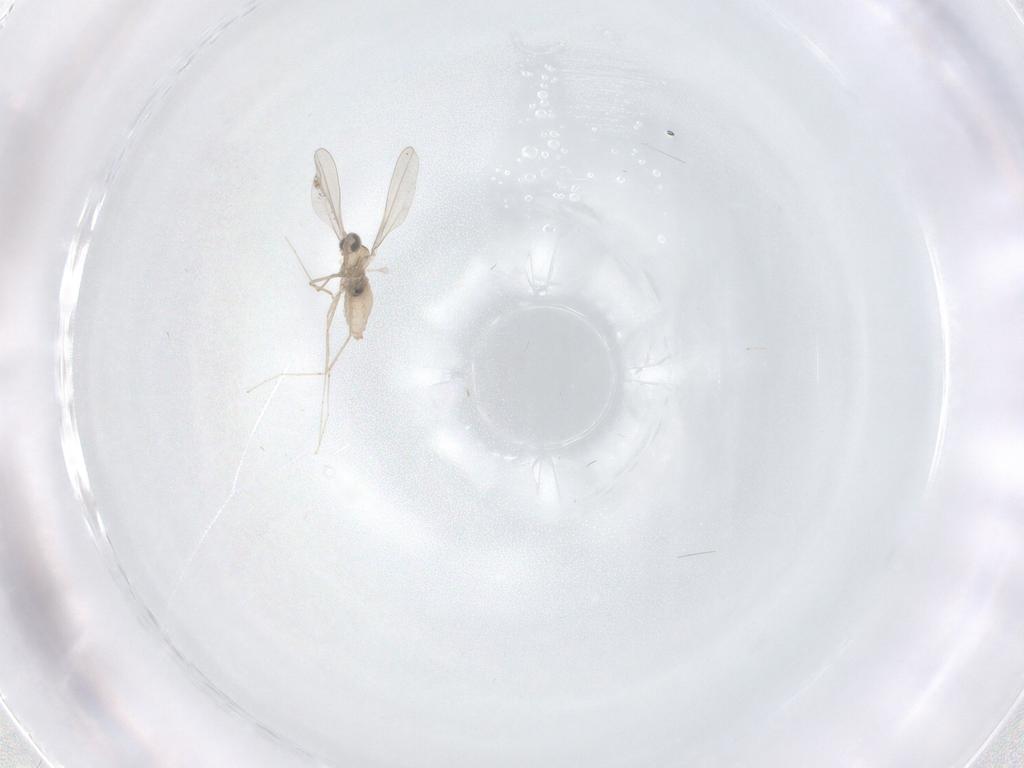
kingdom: Animalia
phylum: Arthropoda
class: Insecta
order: Diptera
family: Cecidomyiidae
